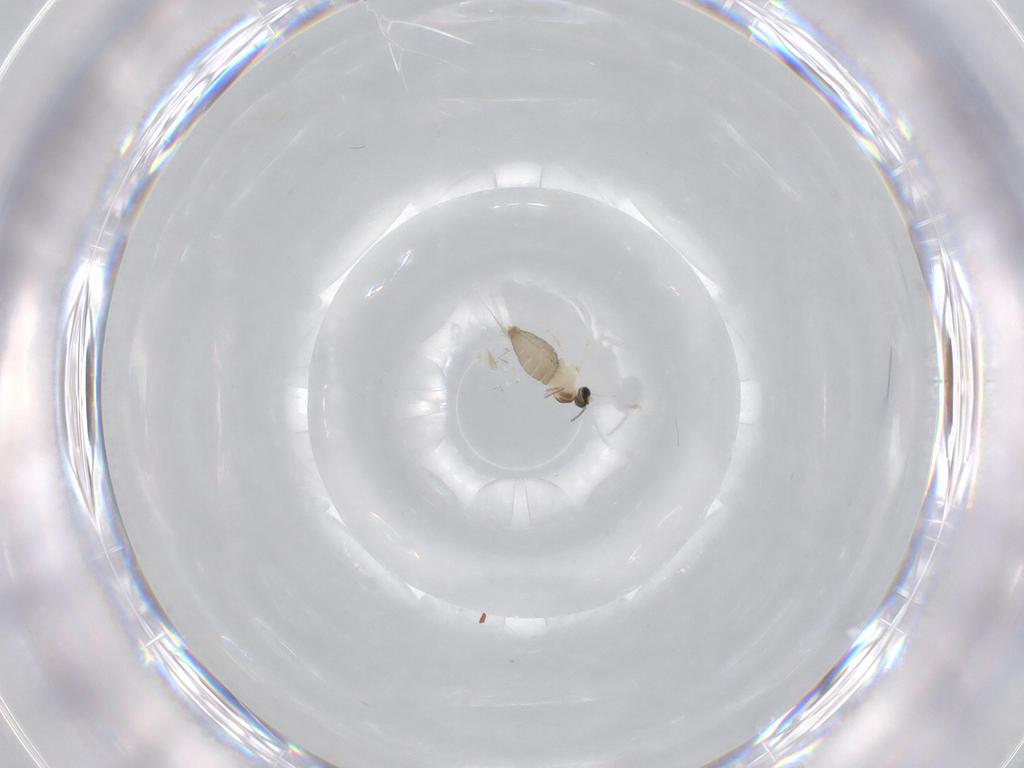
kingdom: Animalia
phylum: Arthropoda
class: Insecta
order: Diptera
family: Cecidomyiidae
